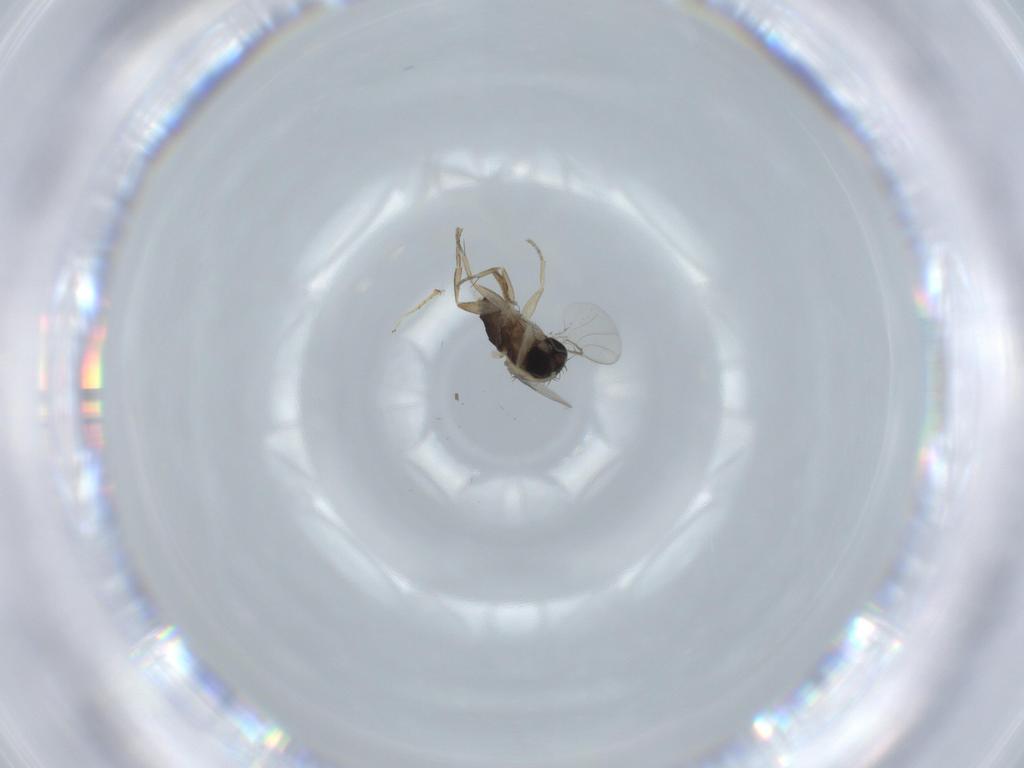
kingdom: Animalia
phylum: Arthropoda
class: Insecta
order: Diptera
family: Phoridae
